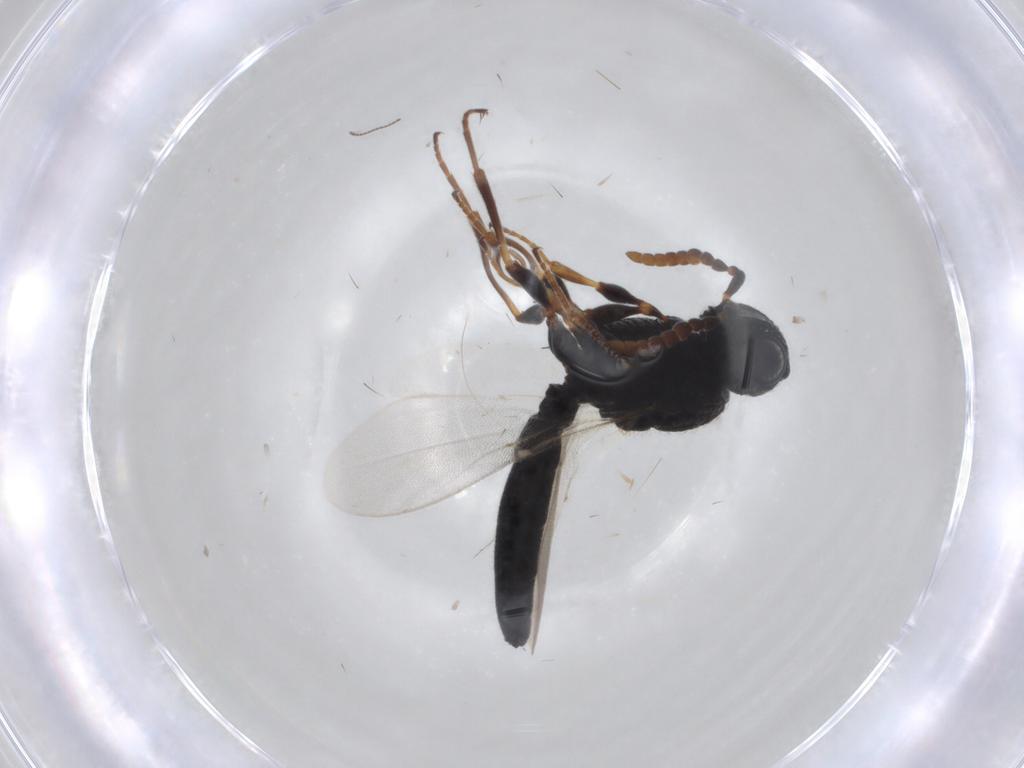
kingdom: Animalia
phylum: Arthropoda
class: Insecta
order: Hymenoptera
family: Scelionidae
